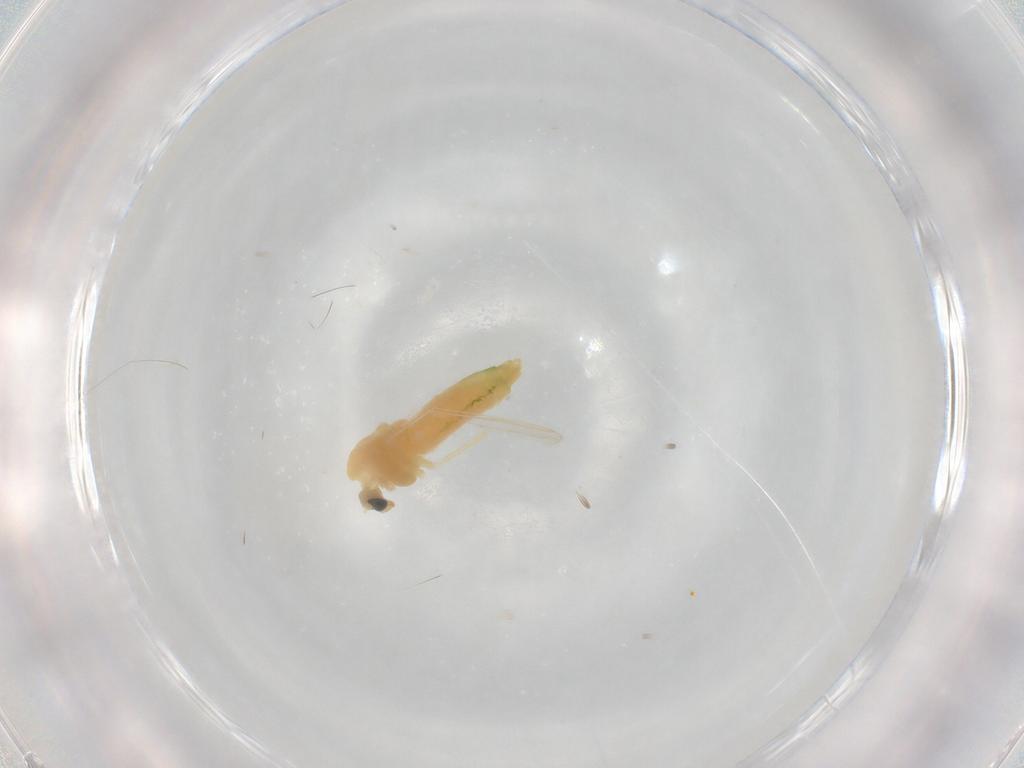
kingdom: Animalia
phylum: Arthropoda
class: Insecta
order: Diptera
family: Chironomidae
